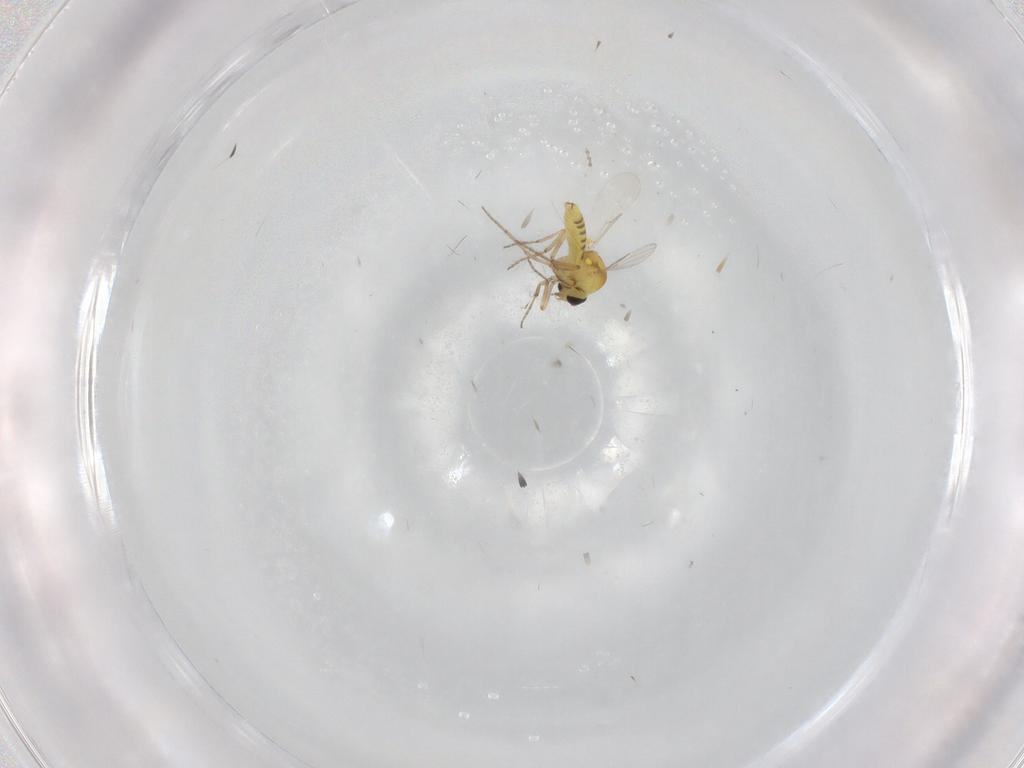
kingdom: Animalia
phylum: Arthropoda
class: Insecta
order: Diptera
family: Ceratopogonidae
